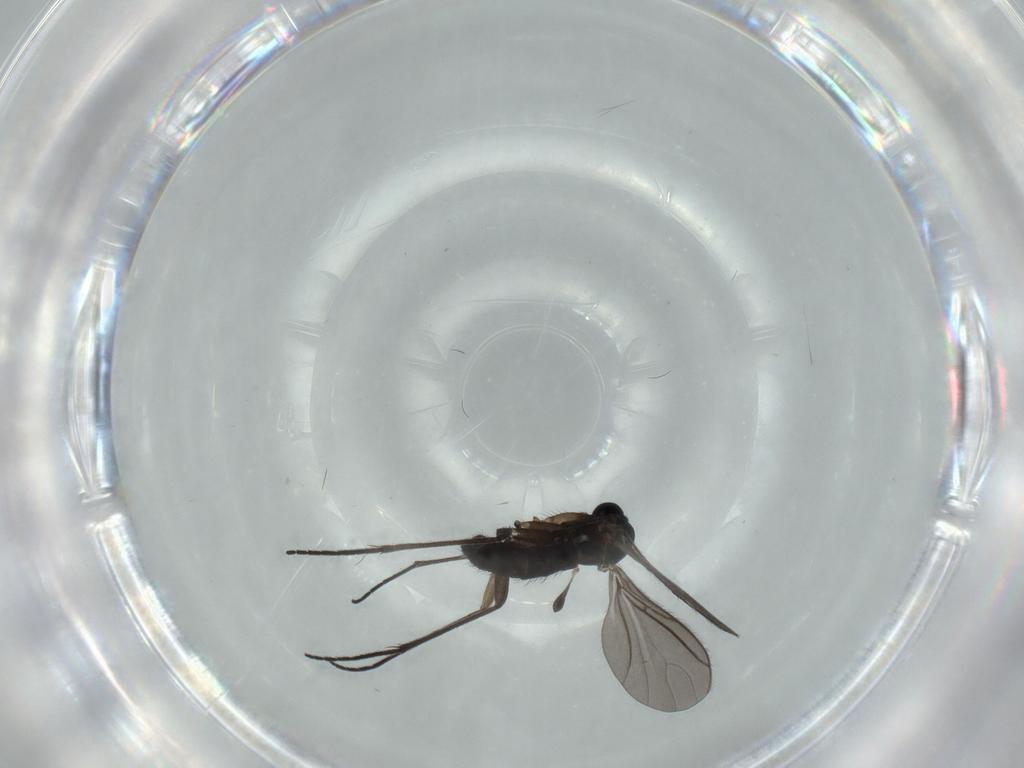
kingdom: Animalia
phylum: Arthropoda
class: Insecta
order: Diptera
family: Sciaridae
